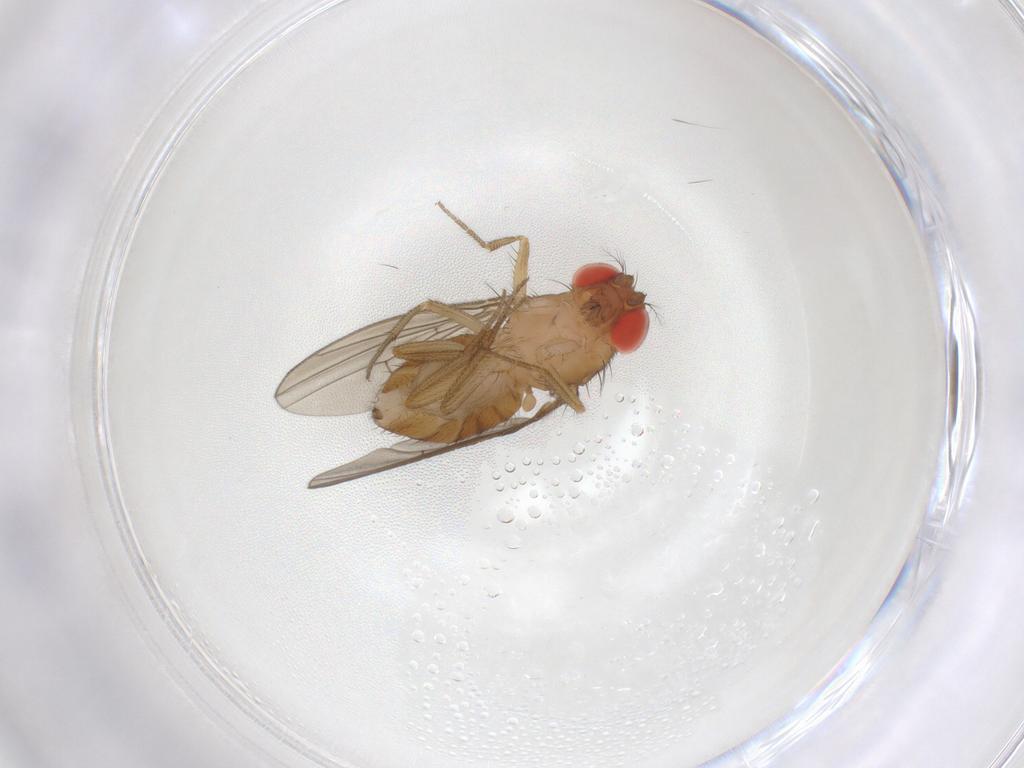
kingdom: Animalia
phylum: Arthropoda
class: Insecta
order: Diptera
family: Drosophilidae
